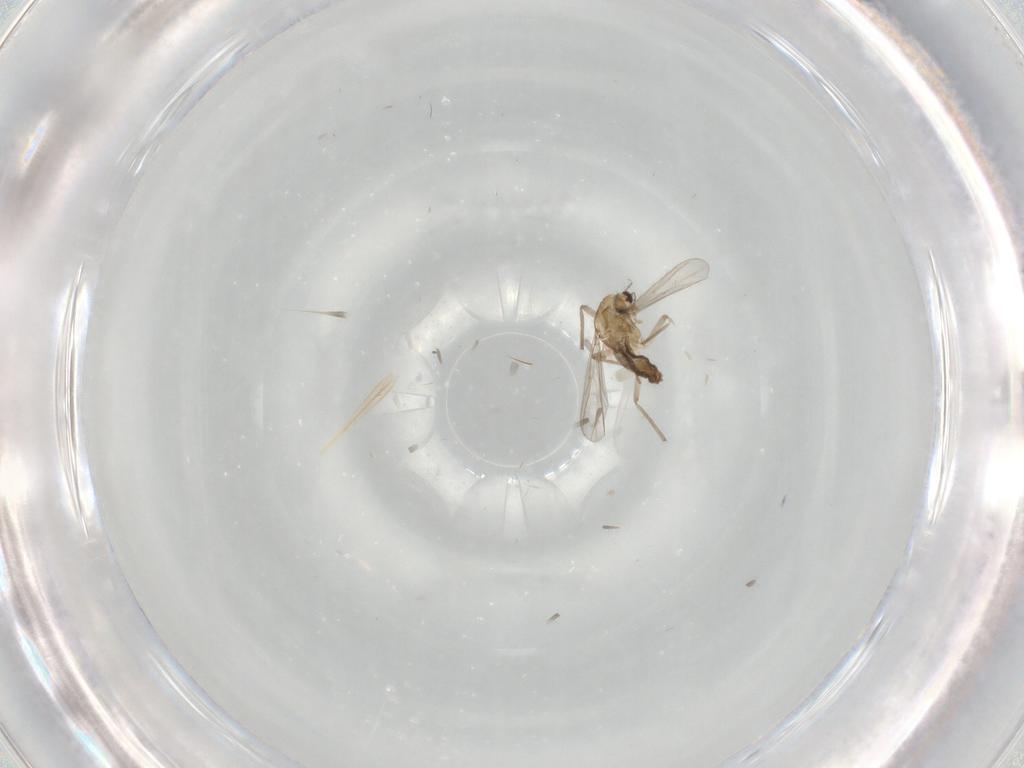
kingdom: Animalia
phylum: Arthropoda
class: Insecta
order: Diptera
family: Chironomidae
